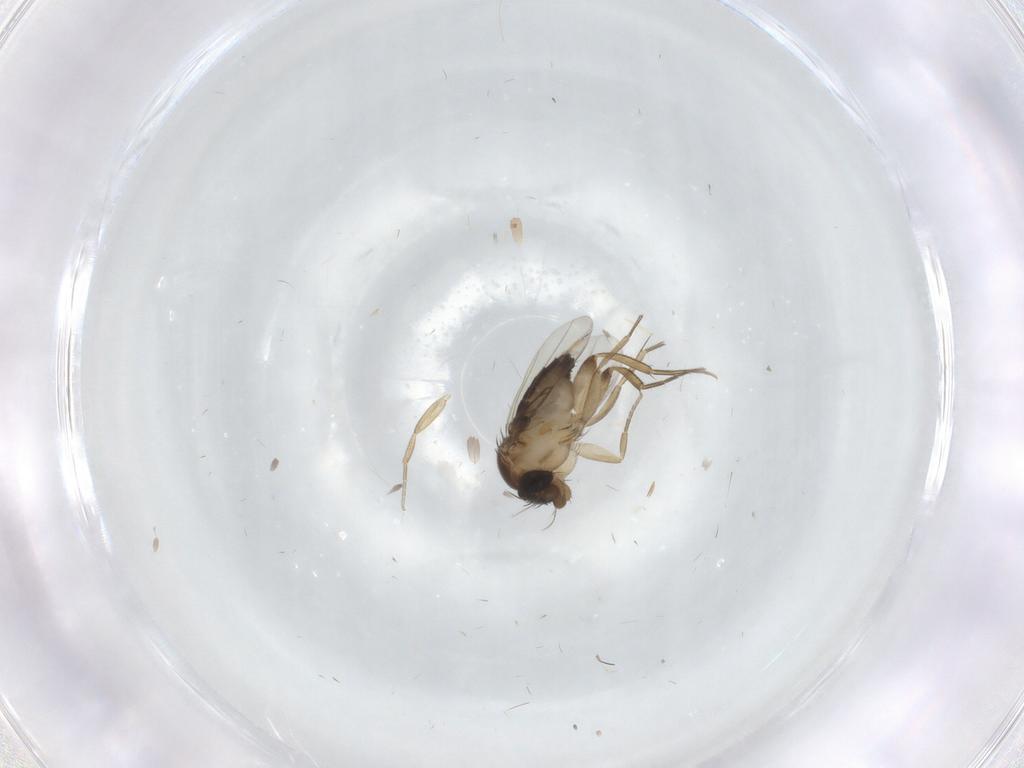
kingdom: Animalia
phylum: Arthropoda
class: Insecta
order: Diptera
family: Phoridae
